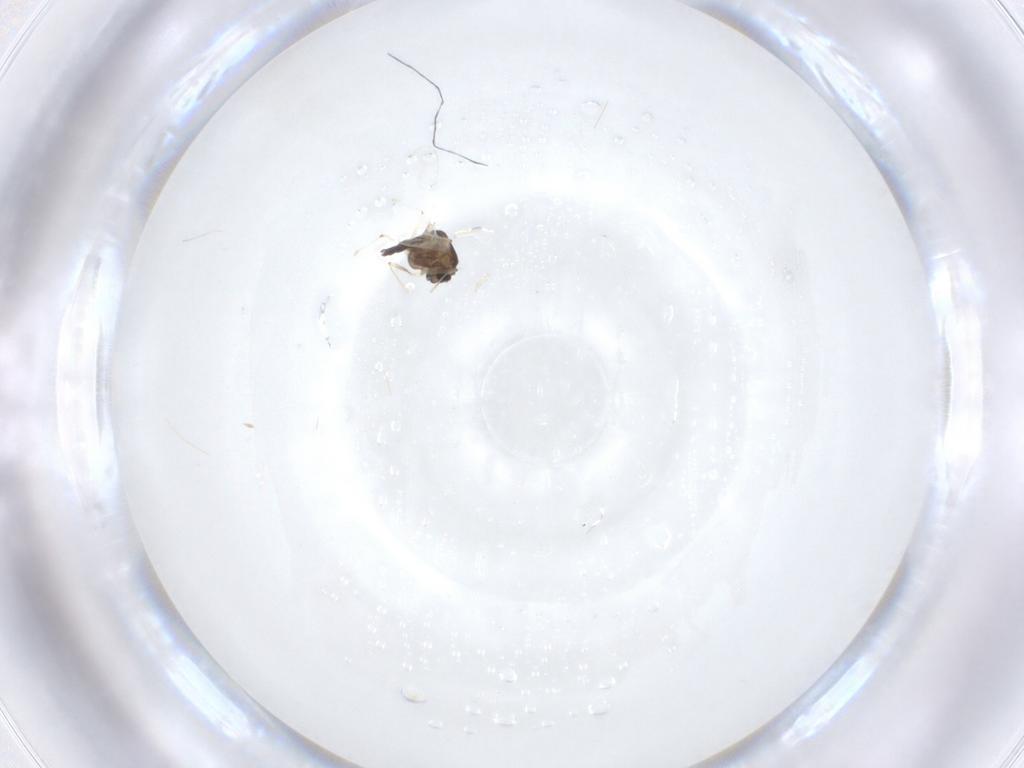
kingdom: Animalia
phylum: Arthropoda
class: Insecta
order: Diptera
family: Chironomidae
